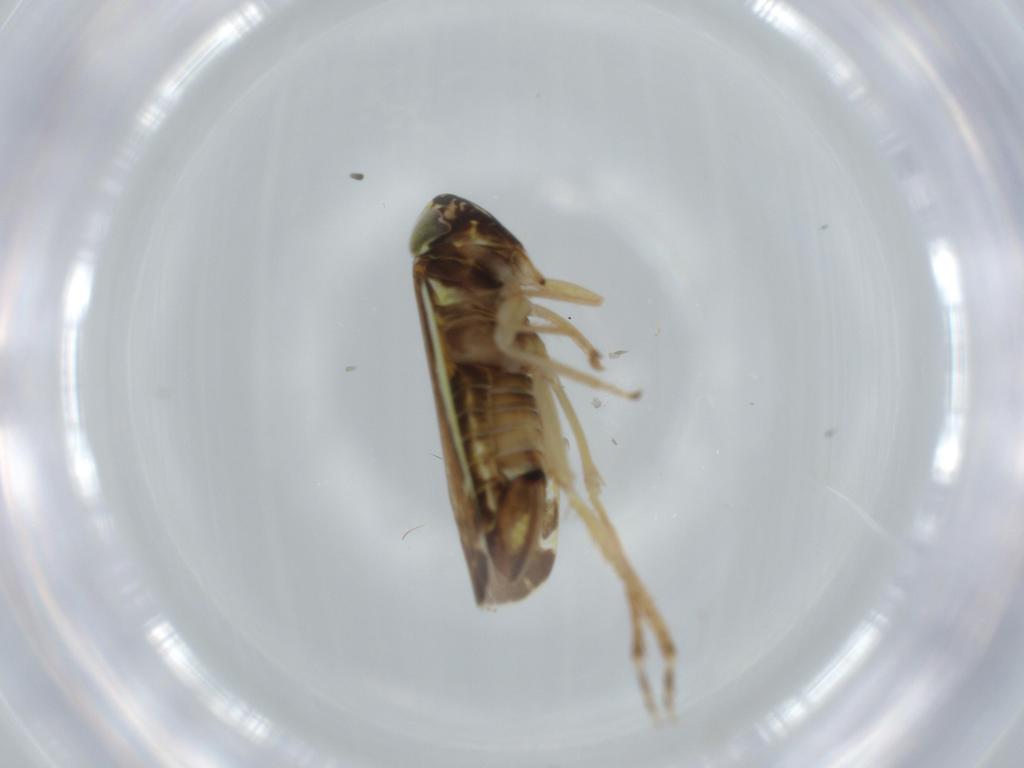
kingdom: Animalia
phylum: Arthropoda
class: Insecta
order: Hemiptera
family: Cicadellidae
